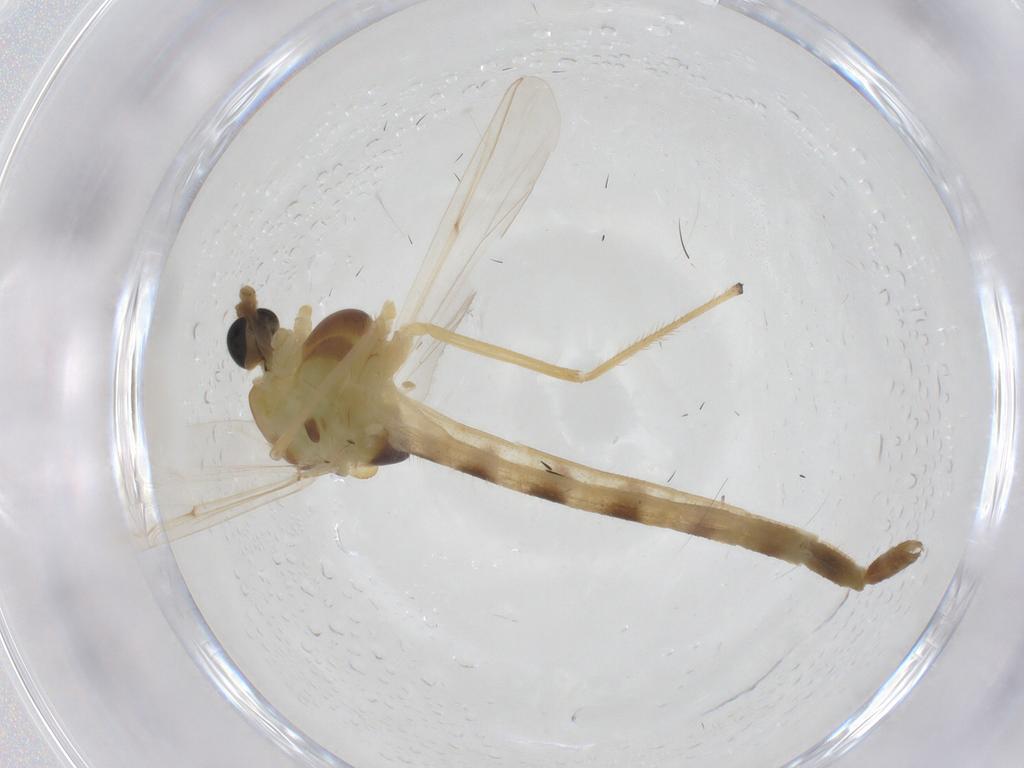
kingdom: Animalia
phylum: Arthropoda
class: Insecta
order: Diptera
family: Chironomidae
